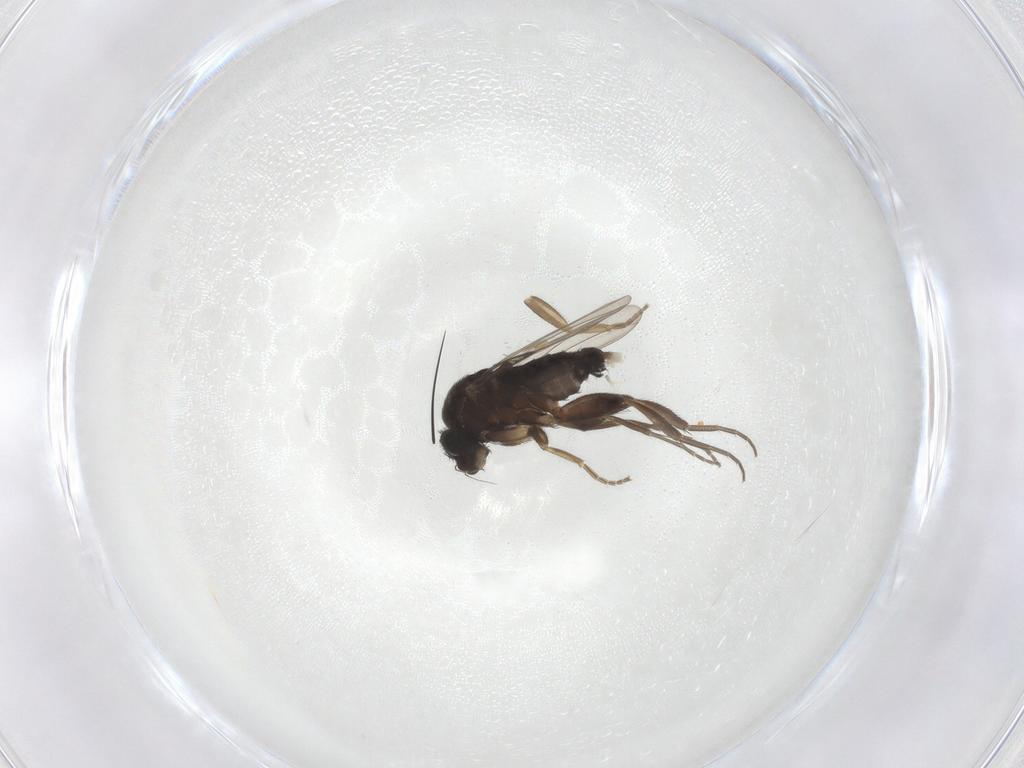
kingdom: Animalia
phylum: Arthropoda
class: Insecta
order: Diptera
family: Phoridae
